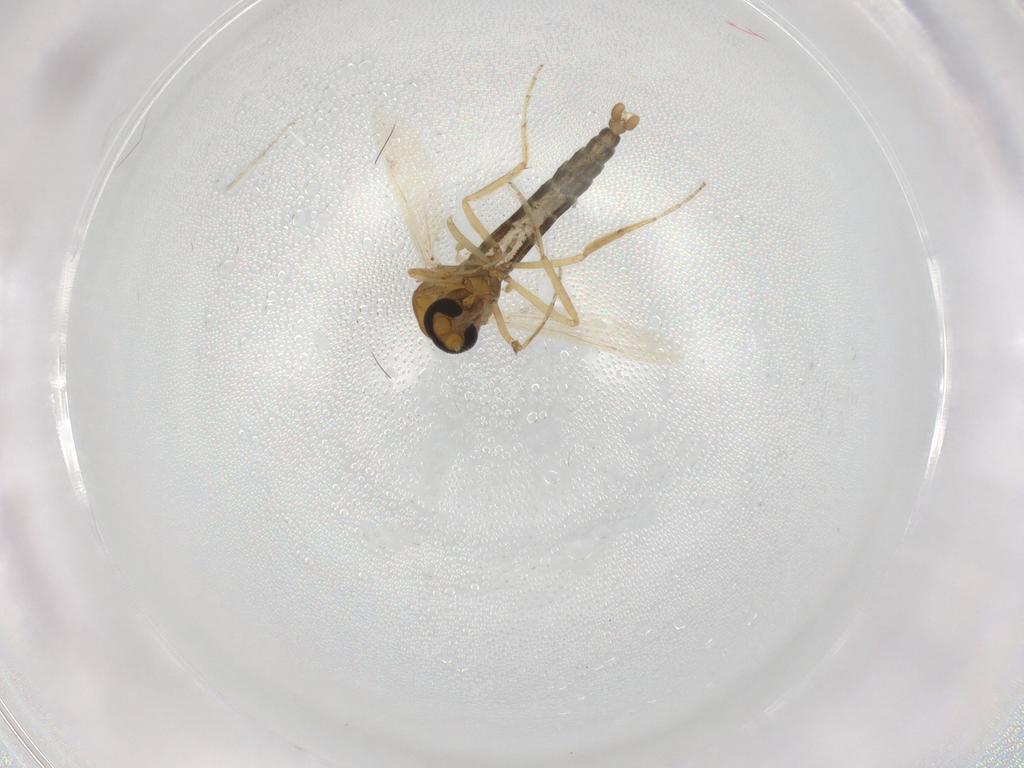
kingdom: Animalia
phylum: Arthropoda
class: Insecta
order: Diptera
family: Ceratopogonidae
